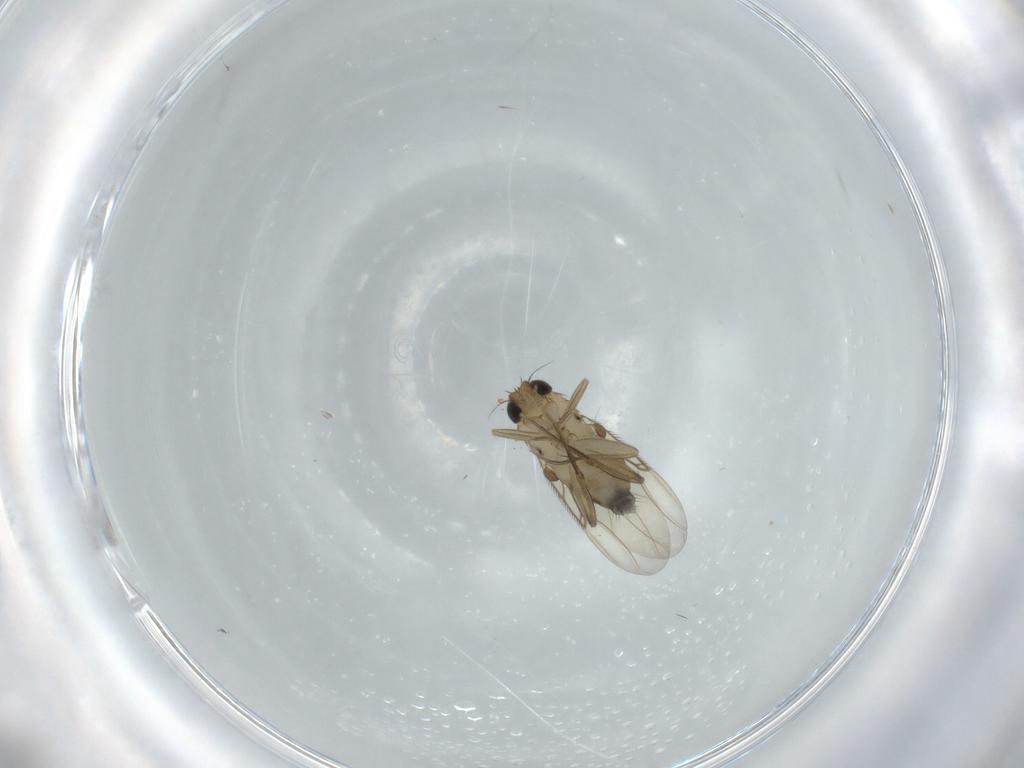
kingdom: Animalia
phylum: Arthropoda
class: Insecta
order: Diptera
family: Phoridae
